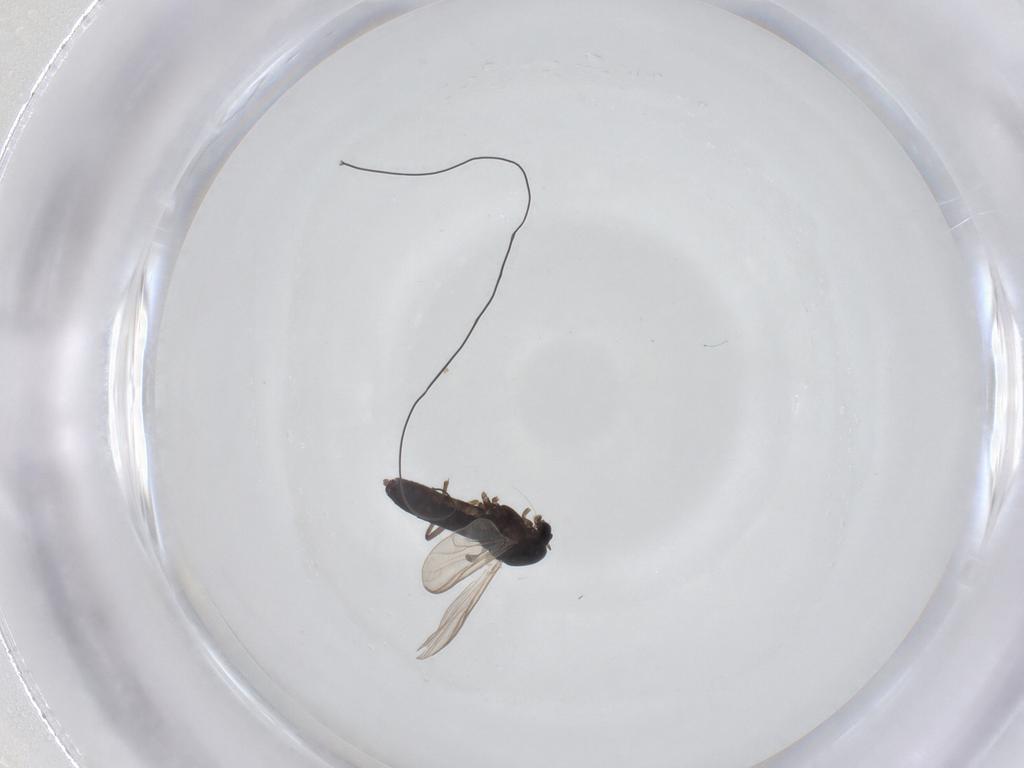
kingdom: Animalia
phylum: Arthropoda
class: Insecta
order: Diptera
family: Chironomidae
